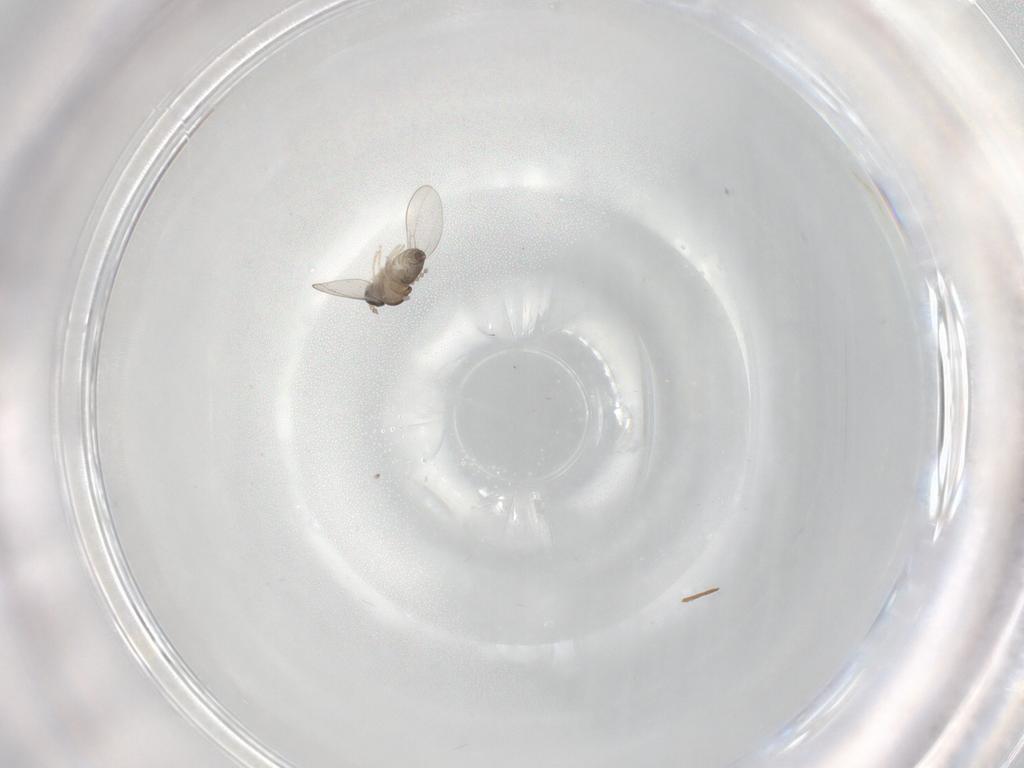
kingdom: Animalia
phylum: Arthropoda
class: Insecta
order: Diptera
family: Cecidomyiidae
